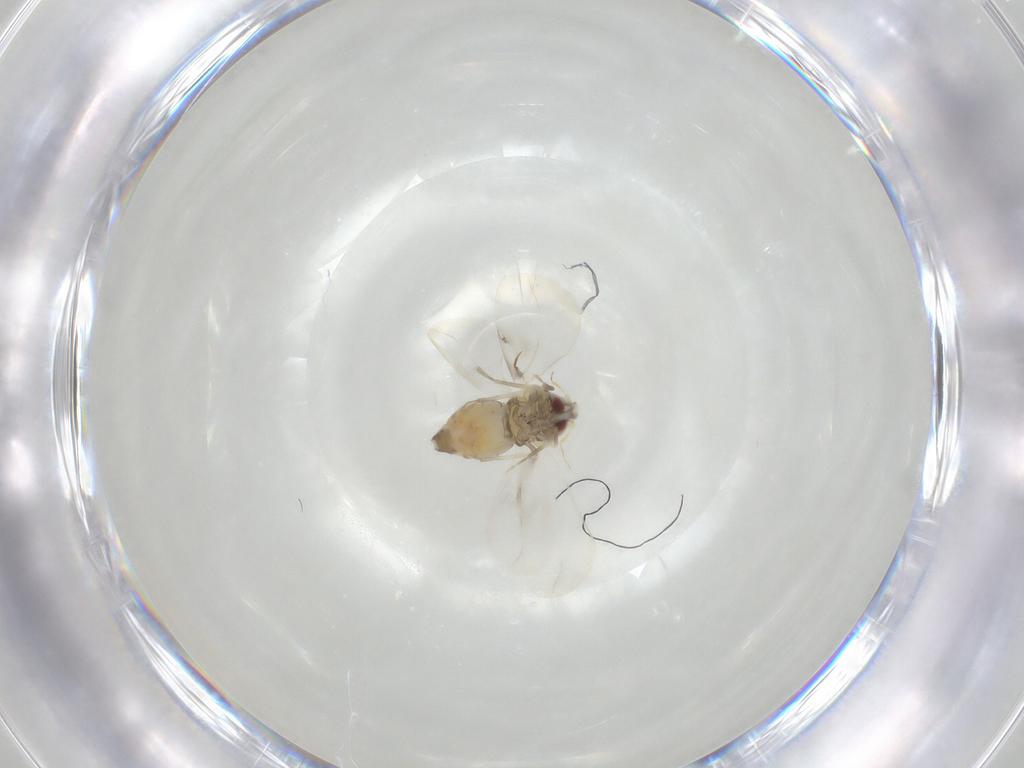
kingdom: Animalia
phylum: Arthropoda
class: Insecta
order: Hemiptera
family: Aleyrodidae
